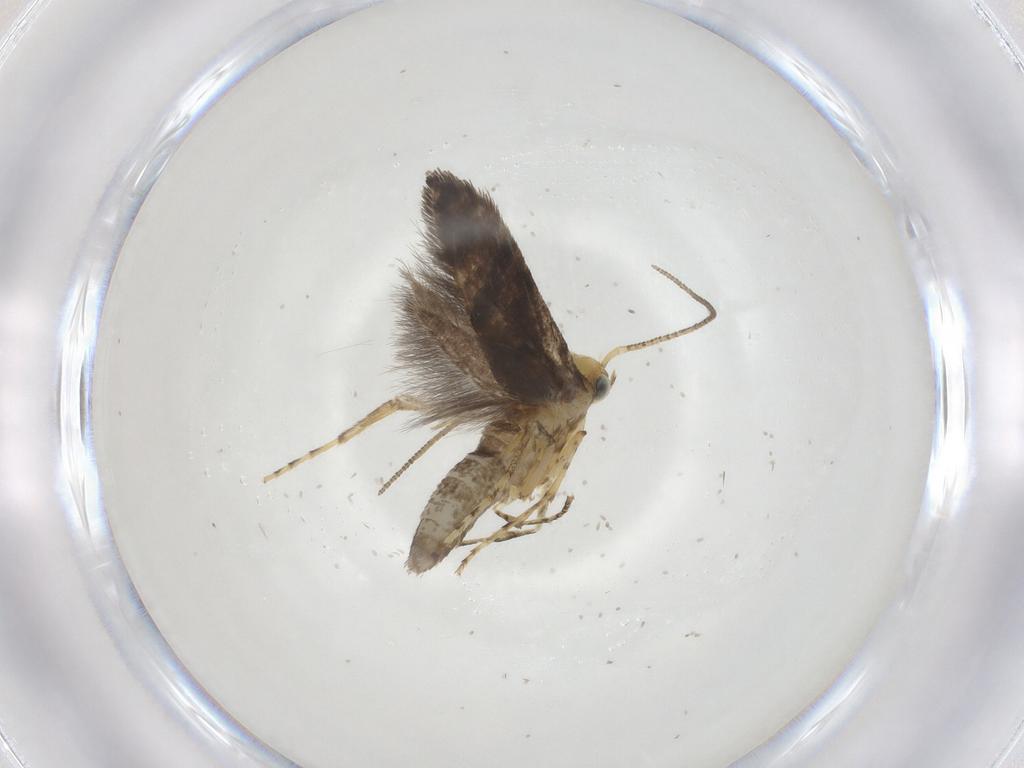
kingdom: Animalia
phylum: Arthropoda
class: Insecta
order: Lepidoptera
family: Argyresthiidae
